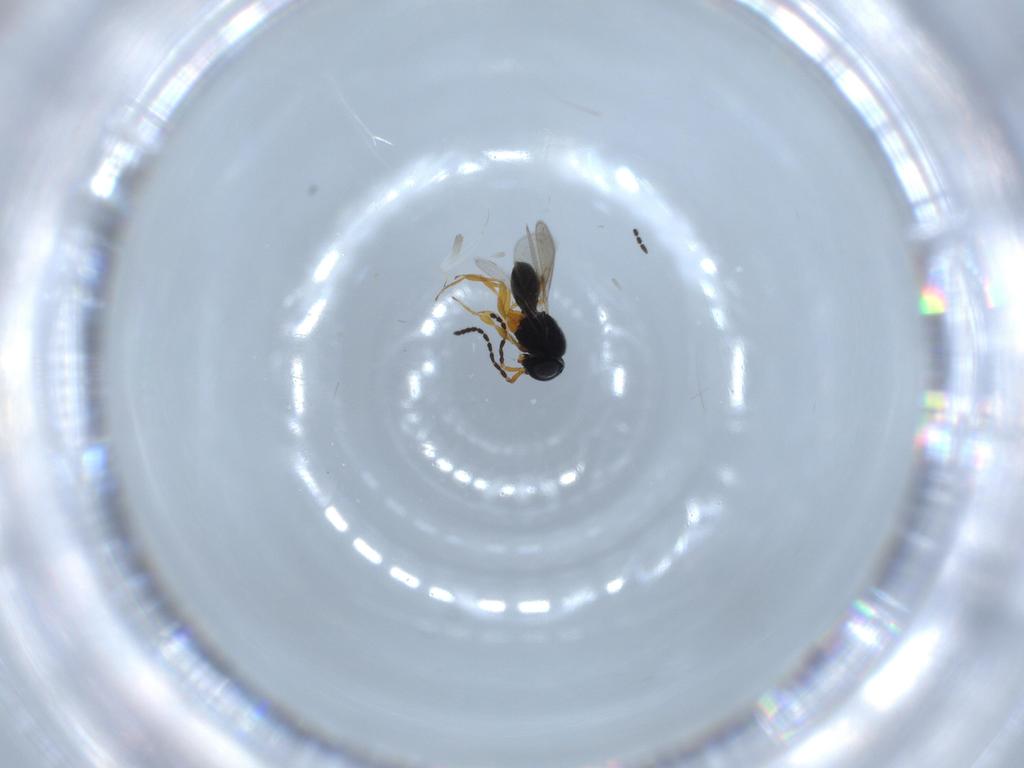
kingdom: Animalia
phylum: Arthropoda
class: Insecta
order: Hymenoptera
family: Scelionidae
